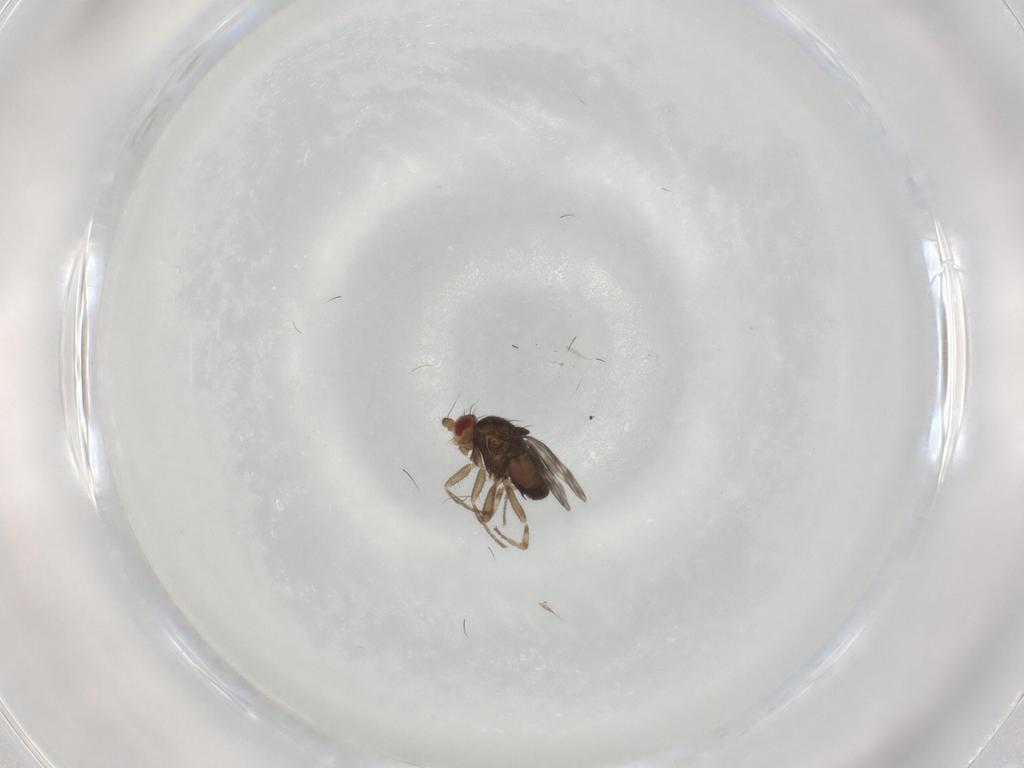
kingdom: Animalia
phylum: Arthropoda
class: Insecta
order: Diptera
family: Sphaeroceridae
